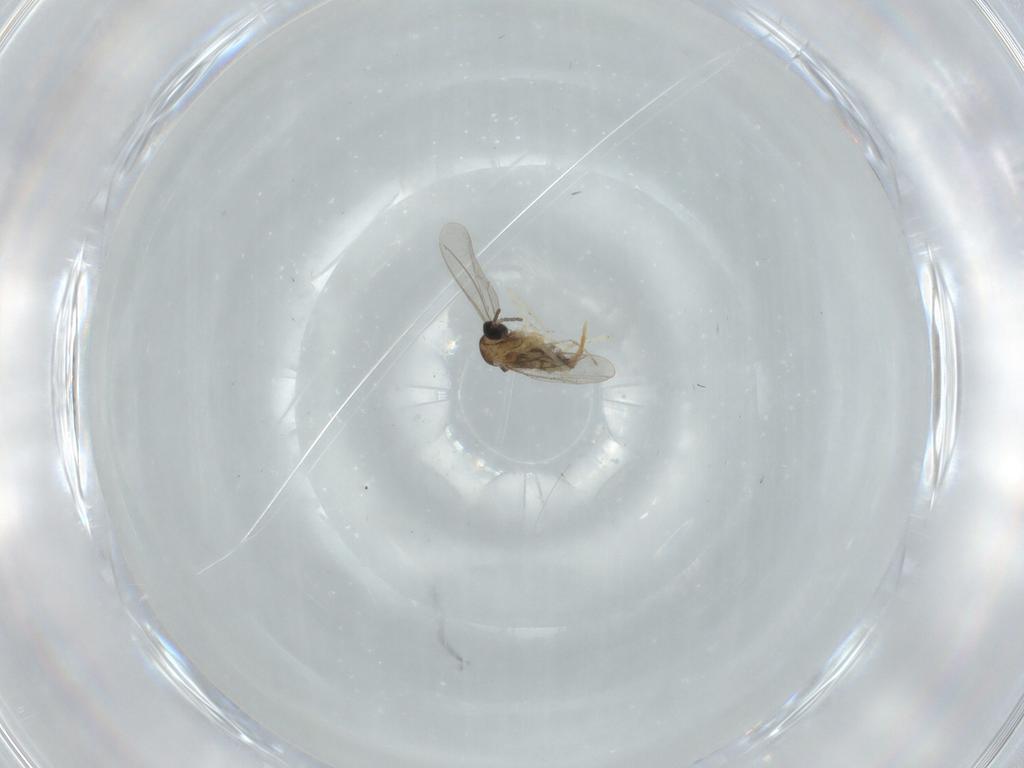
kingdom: Animalia
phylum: Arthropoda
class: Insecta
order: Diptera
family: Cecidomyiidae
